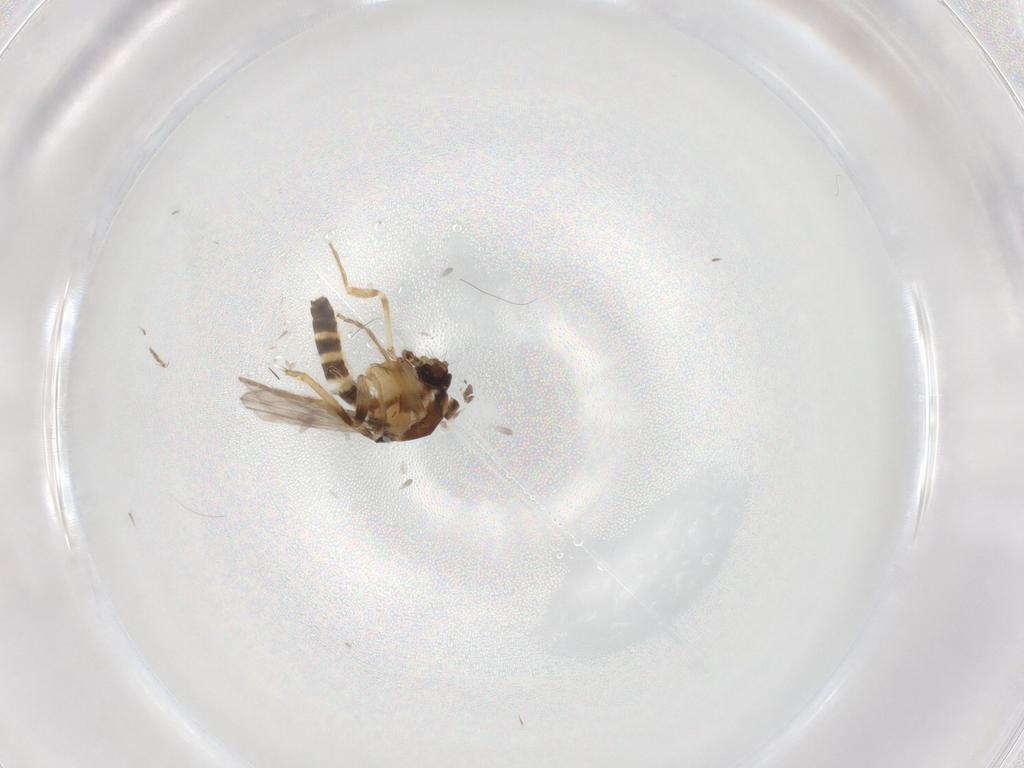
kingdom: Animalia
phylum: Arthropoda
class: Insecta
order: Diptera
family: Ceratopogonidae
